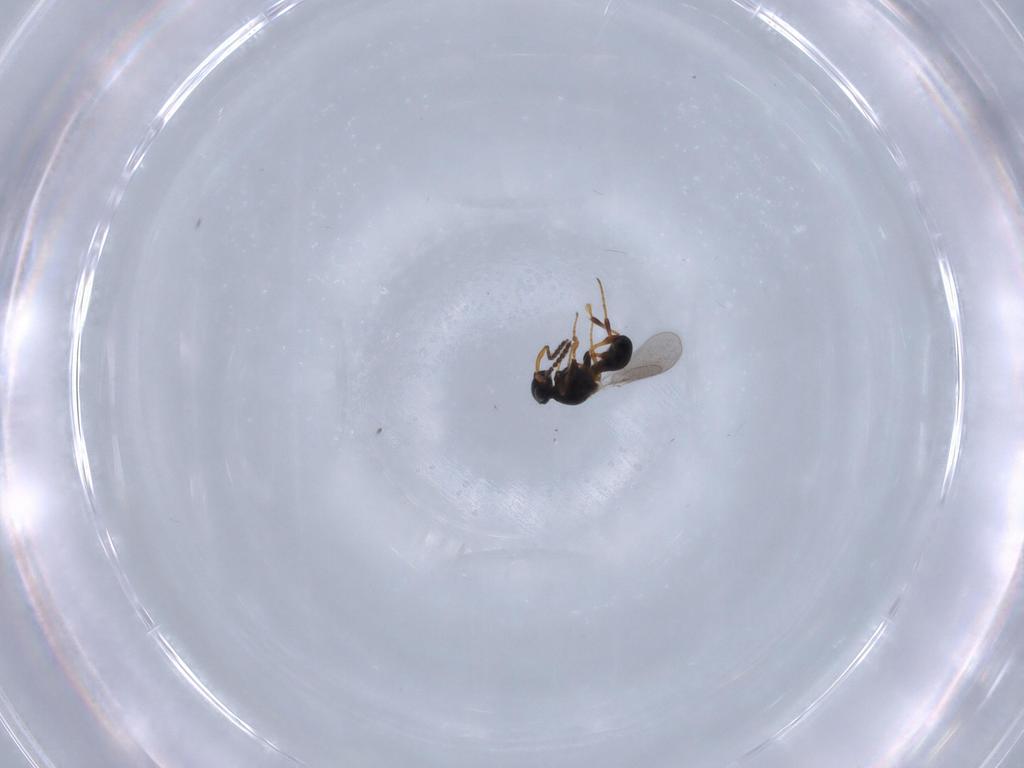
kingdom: Animalia
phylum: Arthropoda
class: Insecta
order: Hymenoptera
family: Platygastridae
